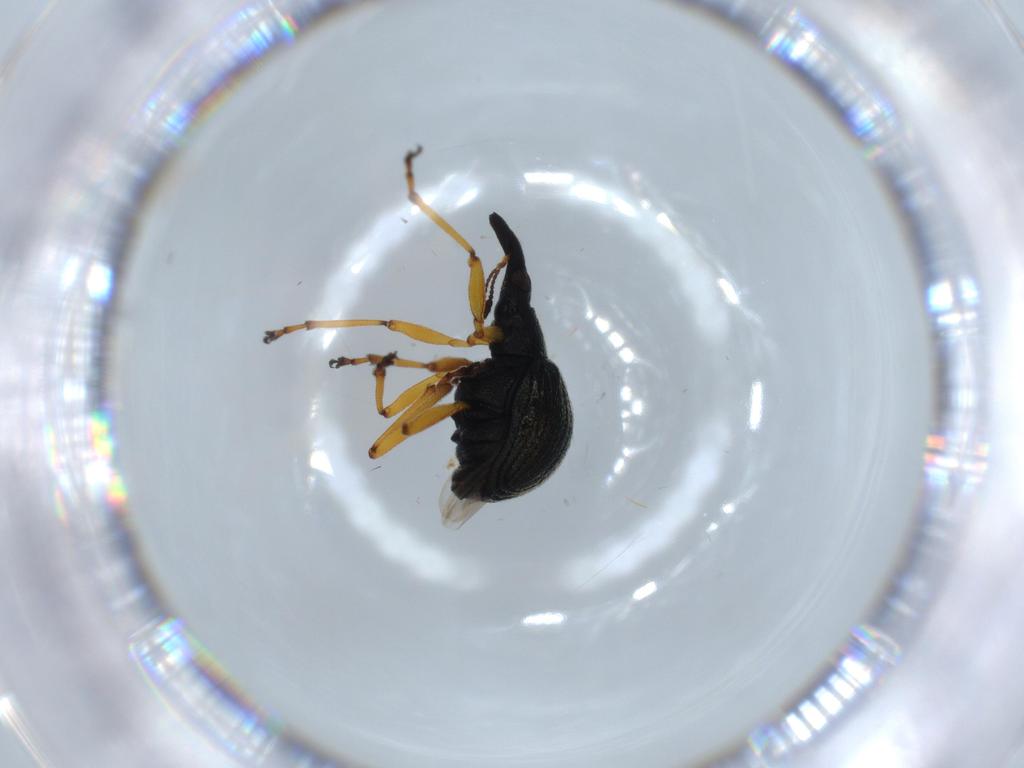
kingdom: Animalia
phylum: Arthropoda
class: Insecta
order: Coleoptera
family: Brentidae
